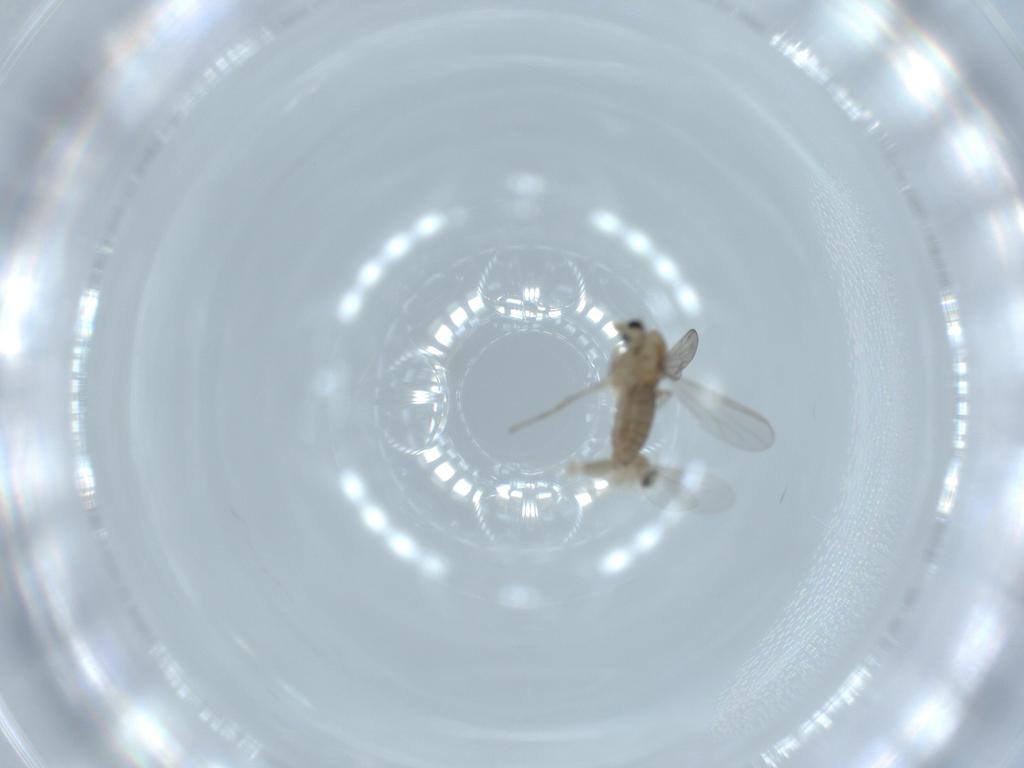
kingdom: Animalia
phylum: Arthropoda
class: Insecta
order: Diptera
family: Chironomidae
